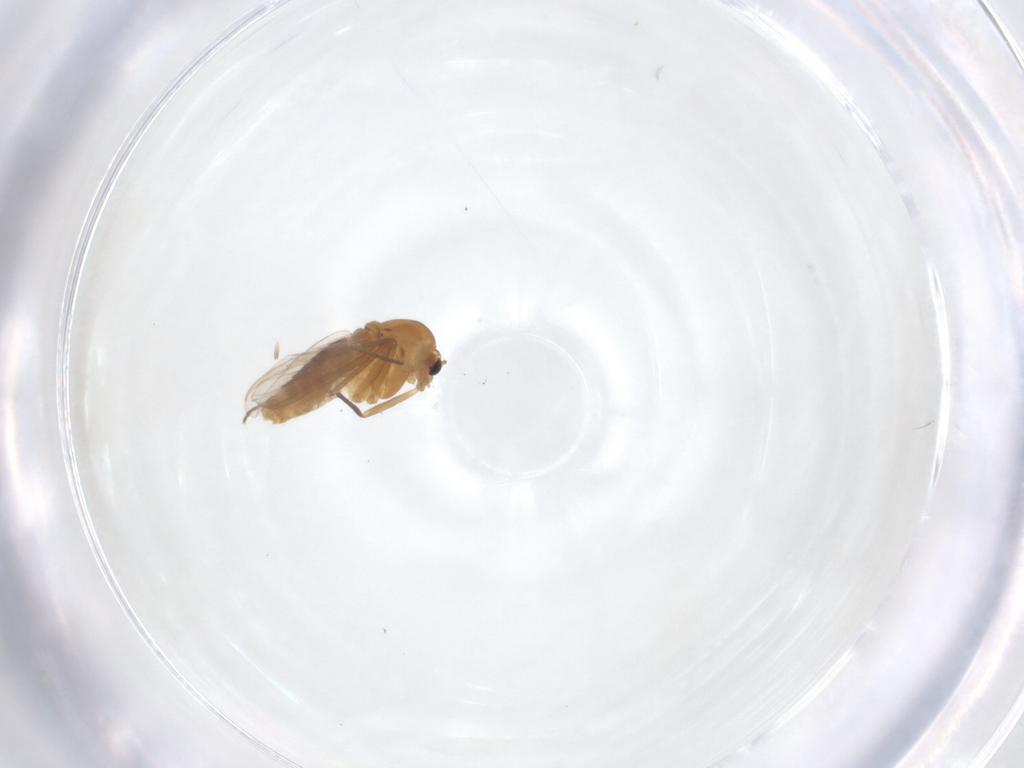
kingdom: Animalia
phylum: Arthropoda
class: Insecta
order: Diptera
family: Chironomidae
